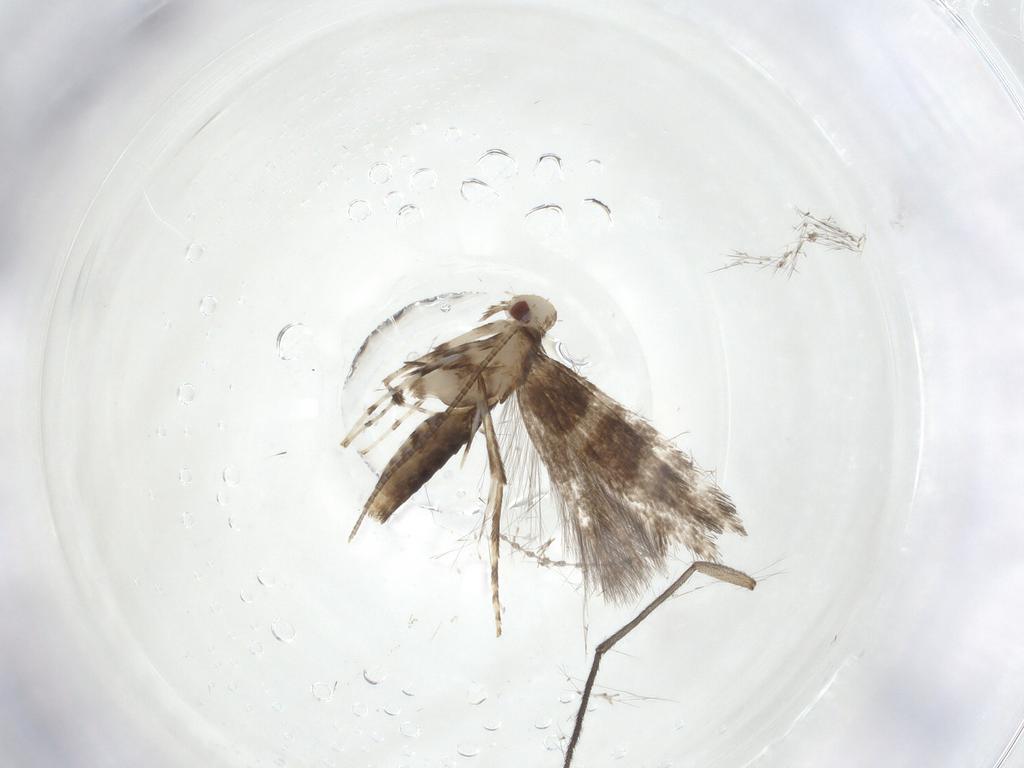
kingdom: Animalia
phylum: Arthropoda
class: Insecta
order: Lepidoptera
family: Gracillariidae
